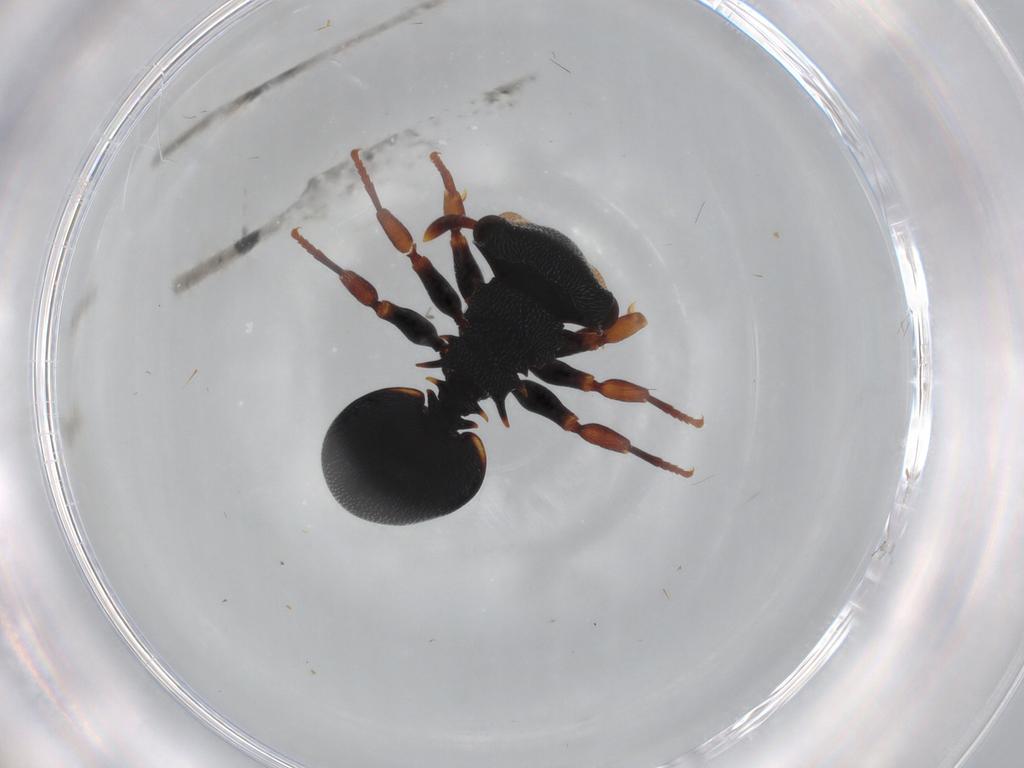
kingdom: Animalia
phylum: Arthropoda
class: Insecta
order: Hymenoptera
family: Formicidae
